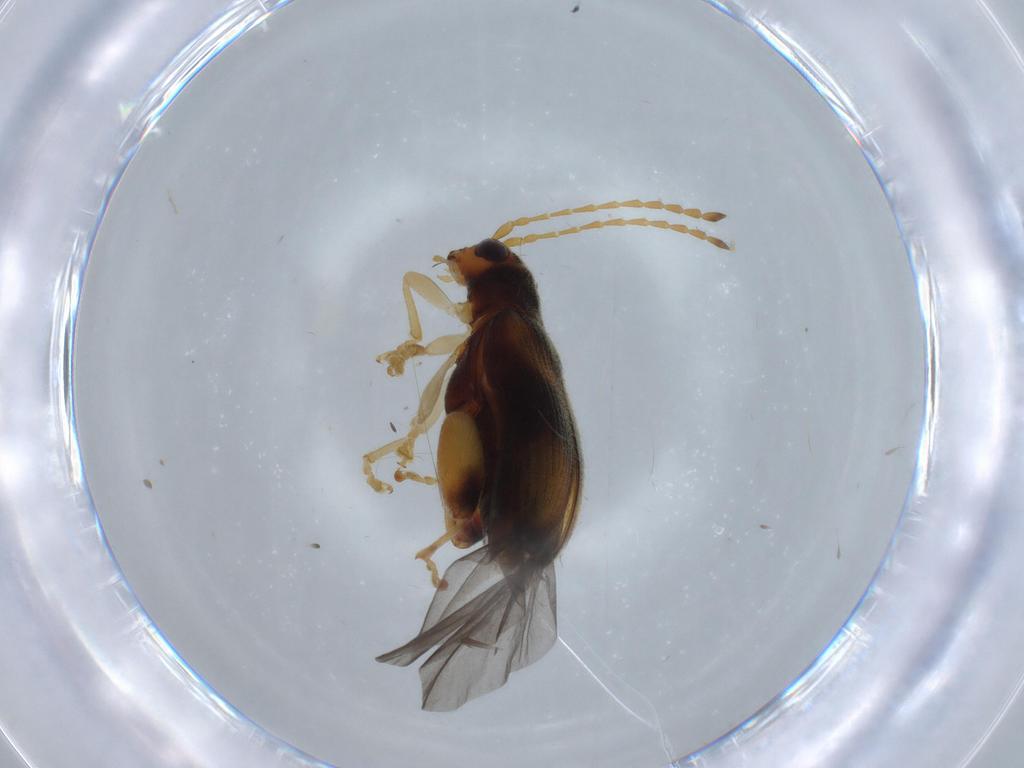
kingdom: Animalia
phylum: Arthropoda
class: Insecta
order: Coleoptera
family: Chrysomelidae
